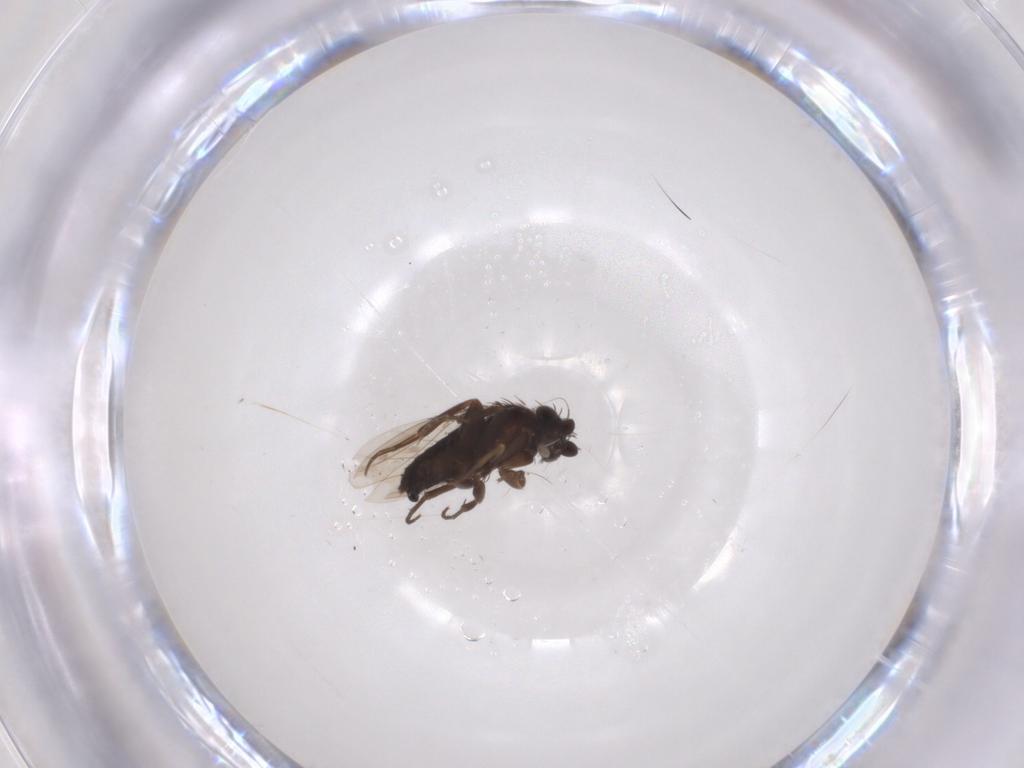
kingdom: Animalia
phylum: Arthropoda
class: Insecta
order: Diptera
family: Phoridae
